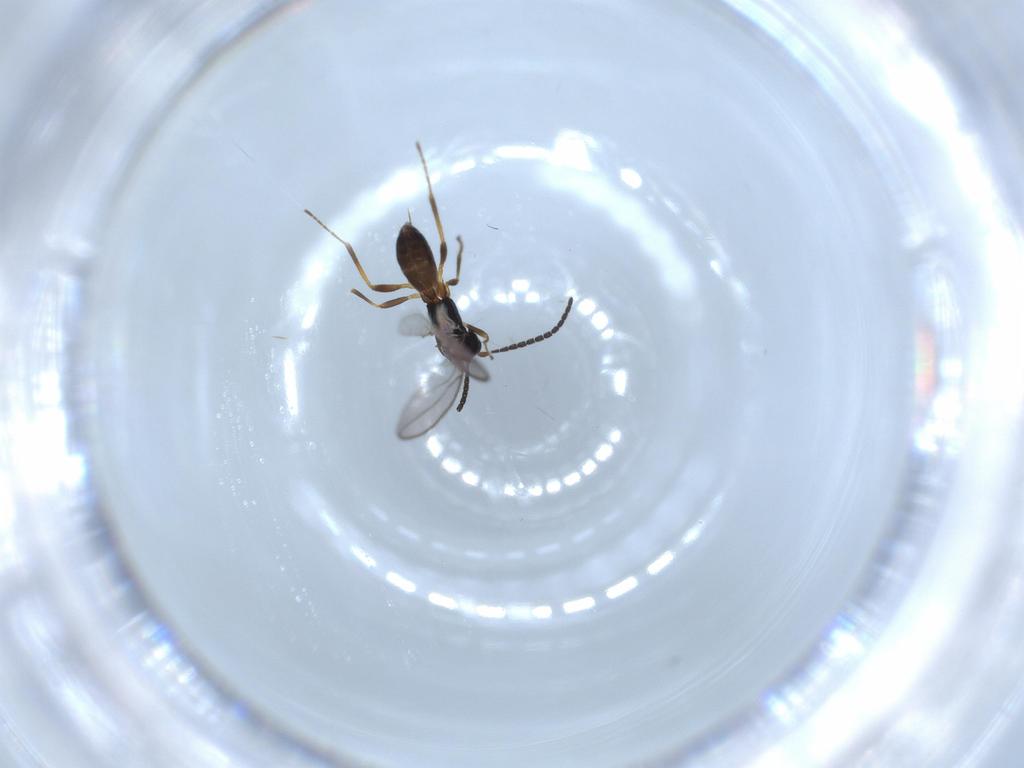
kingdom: Animalia
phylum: Arthropoda
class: Insecta
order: Hymenoptera
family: Braconidae
